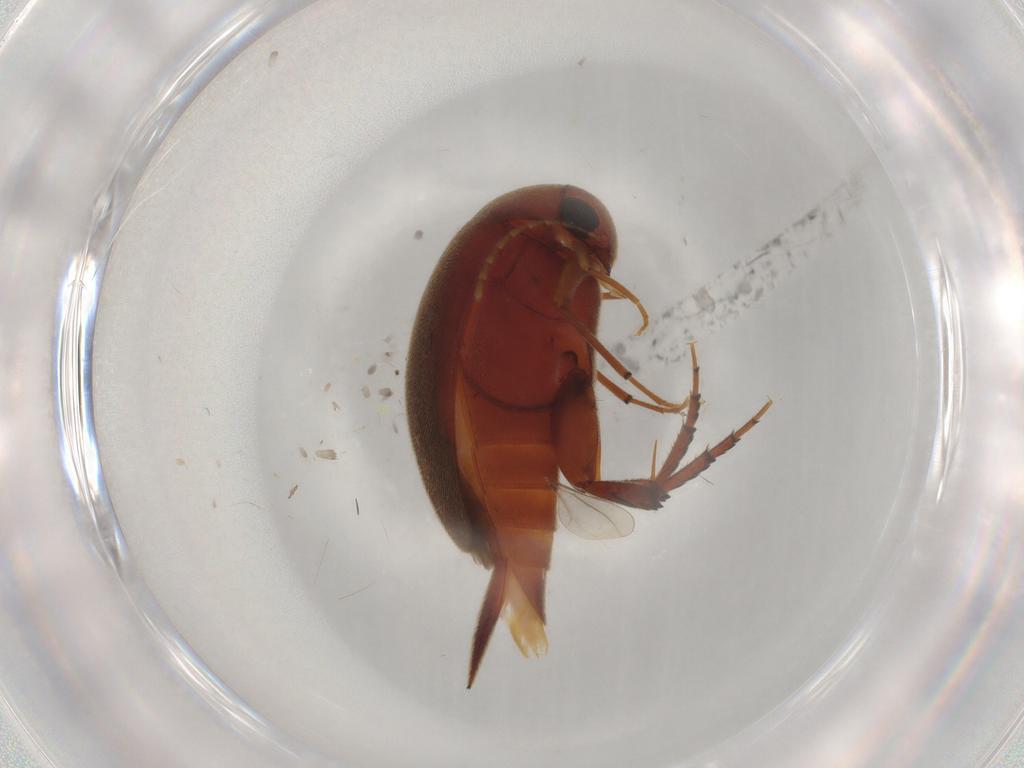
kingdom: Animalia
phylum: Arthropoda
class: Insecta
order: Coleoptera
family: Mordellidae
